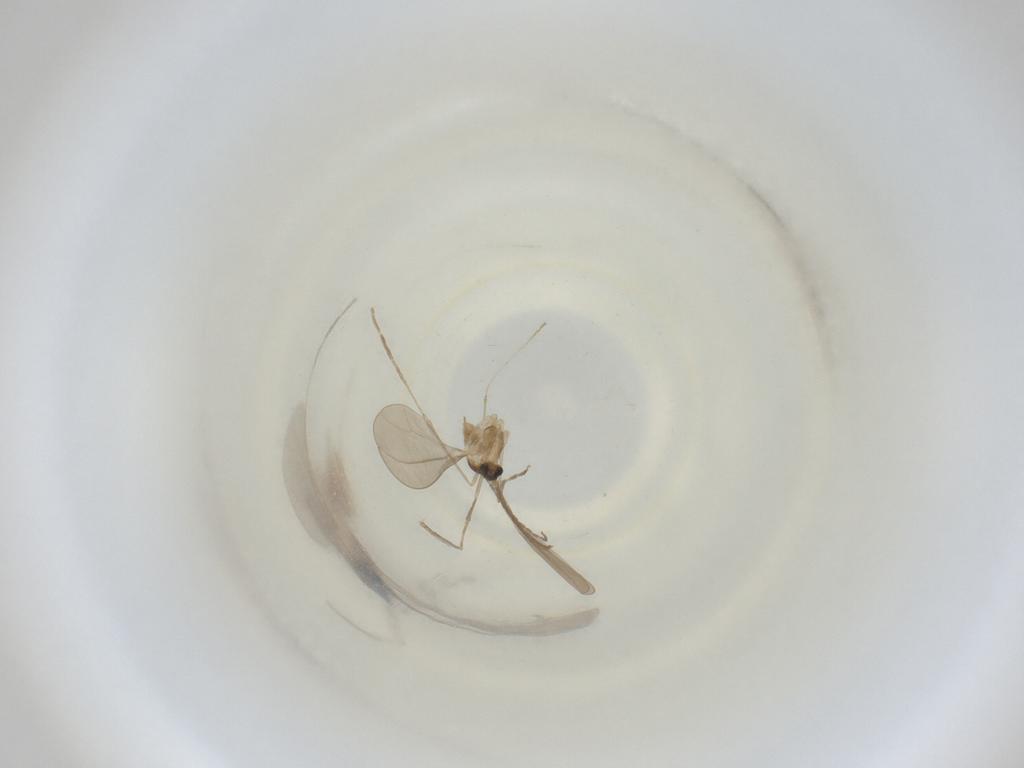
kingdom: Animalia
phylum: Arthropoda
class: Insecta
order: Diptera
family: Cecidomyiidae
